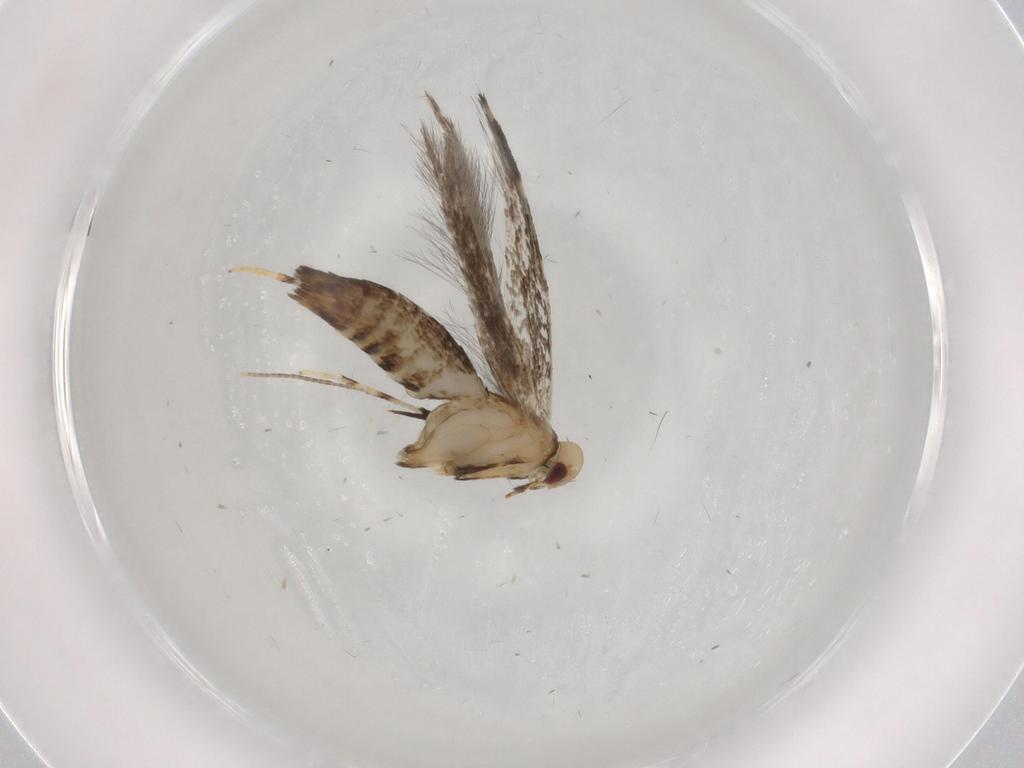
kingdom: Animalia
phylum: Arthropoda
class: Insecta
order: Lepidoptera
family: Gracillariidae
